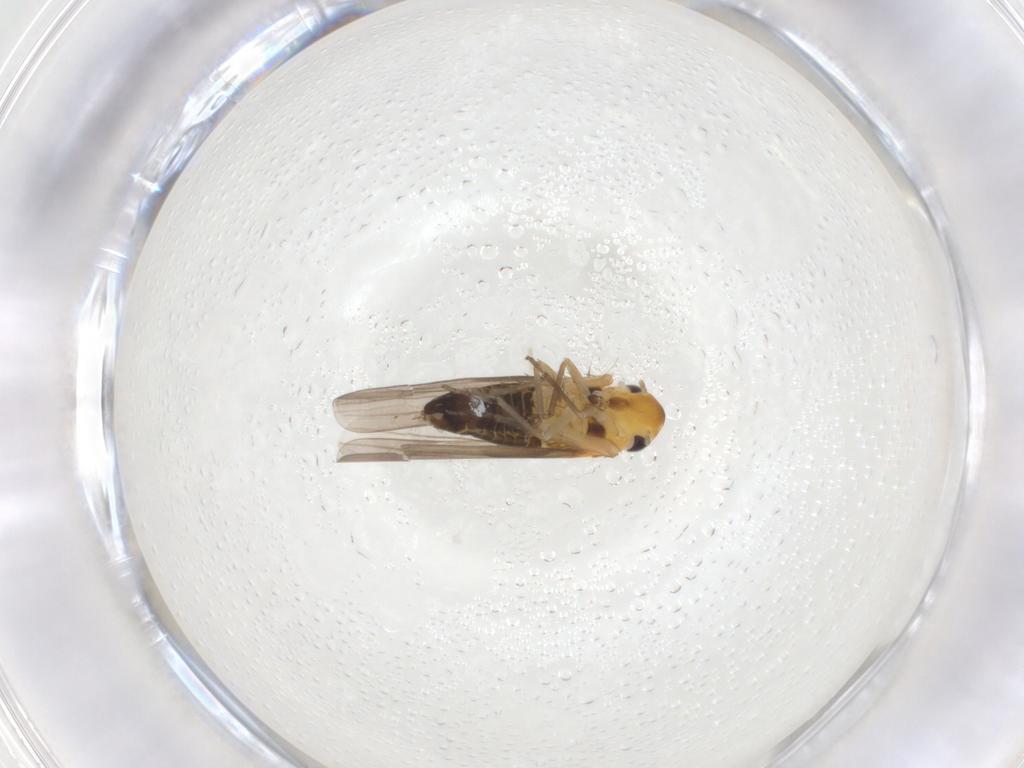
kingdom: Animalia
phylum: Arthropoda
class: Insecta
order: Hemiptera
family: Cicadellidae
